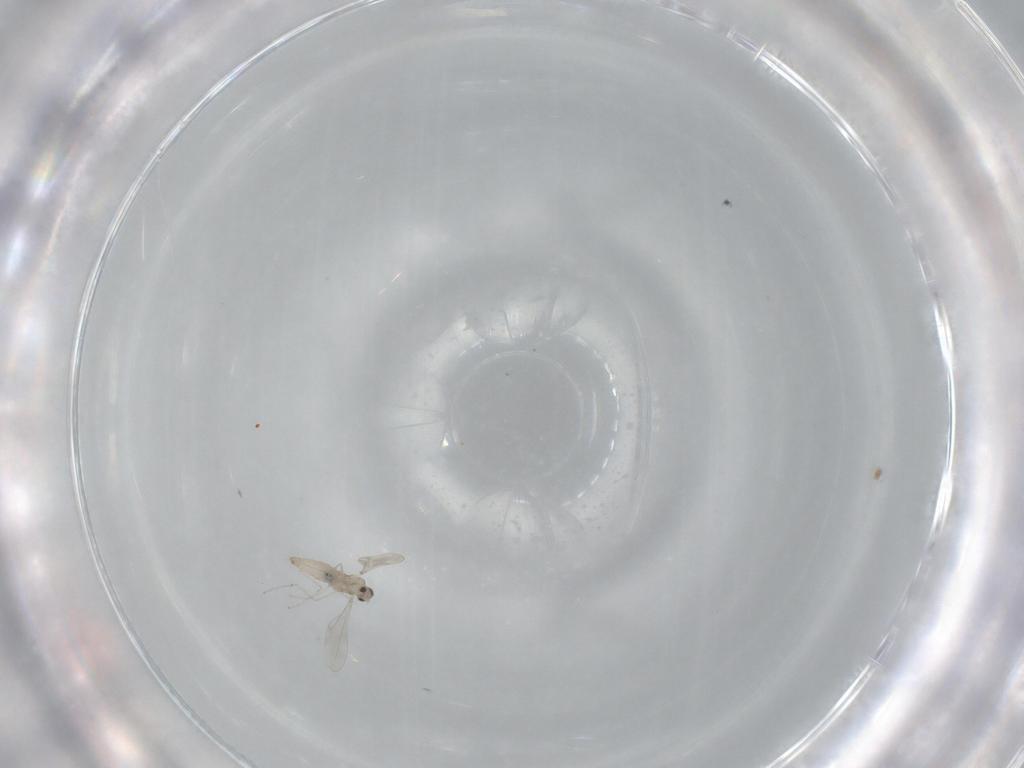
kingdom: Animalia
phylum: Arthropoda
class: Insecta
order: Diptera
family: Cecidomyiidae
